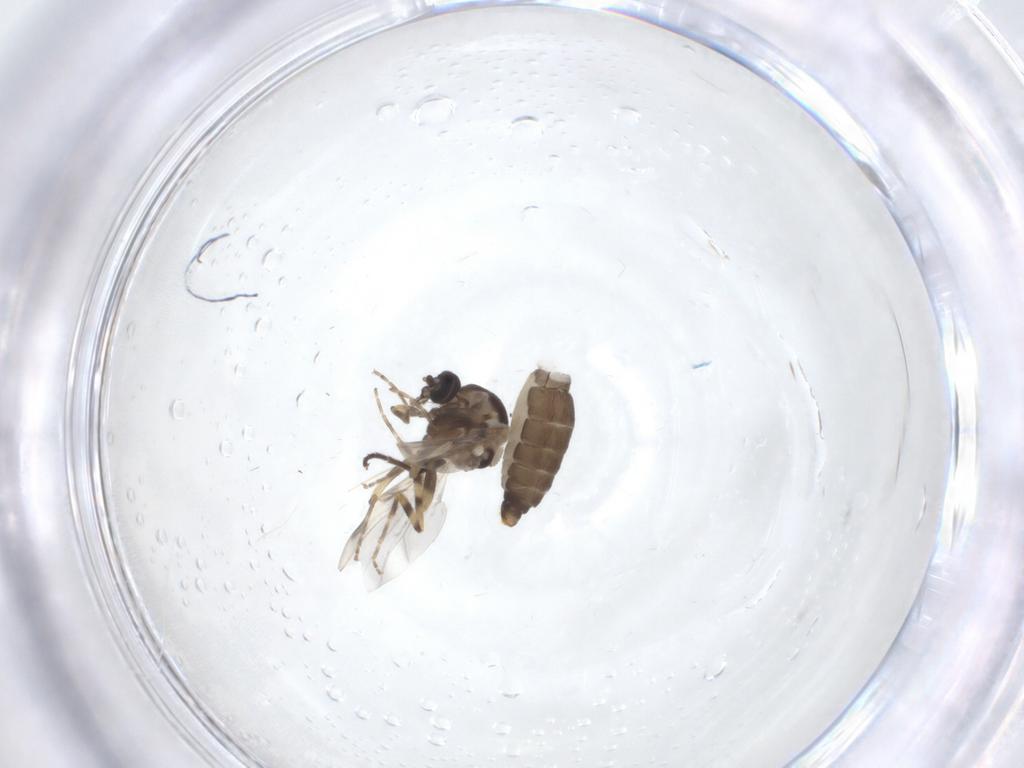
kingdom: Animalia
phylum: Arthropoda
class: Insecta
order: Diptera
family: Ceratopogonidae
